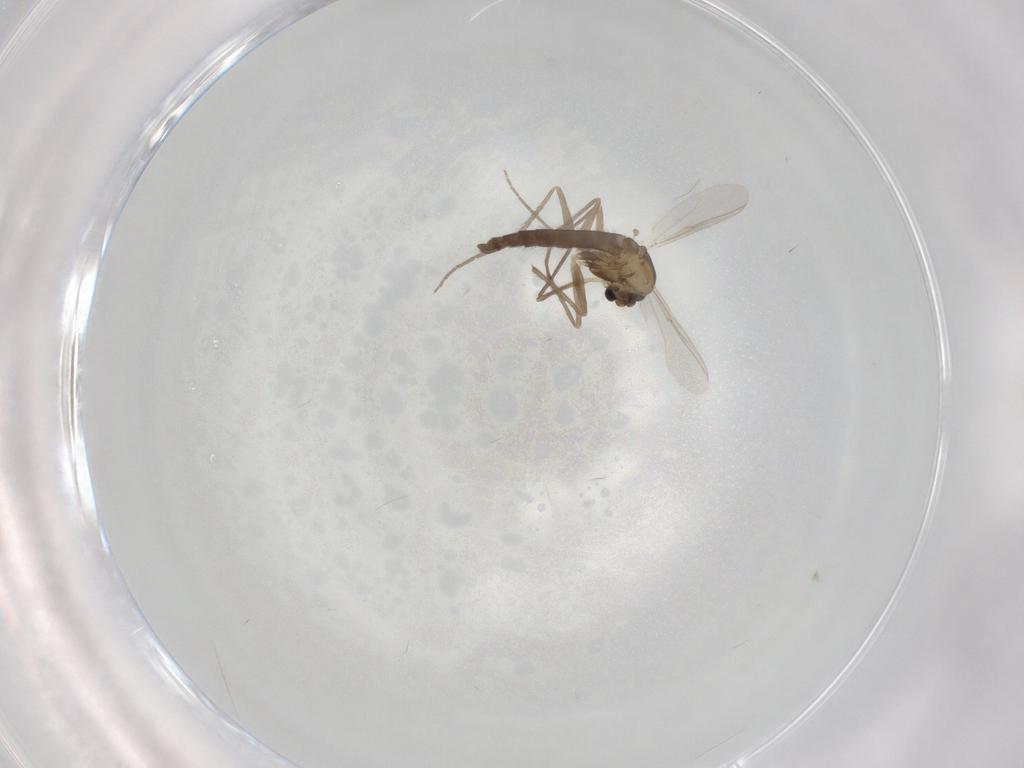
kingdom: Animalia
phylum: Arthropoda
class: Insecta
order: Diptera
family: Chironomidae
